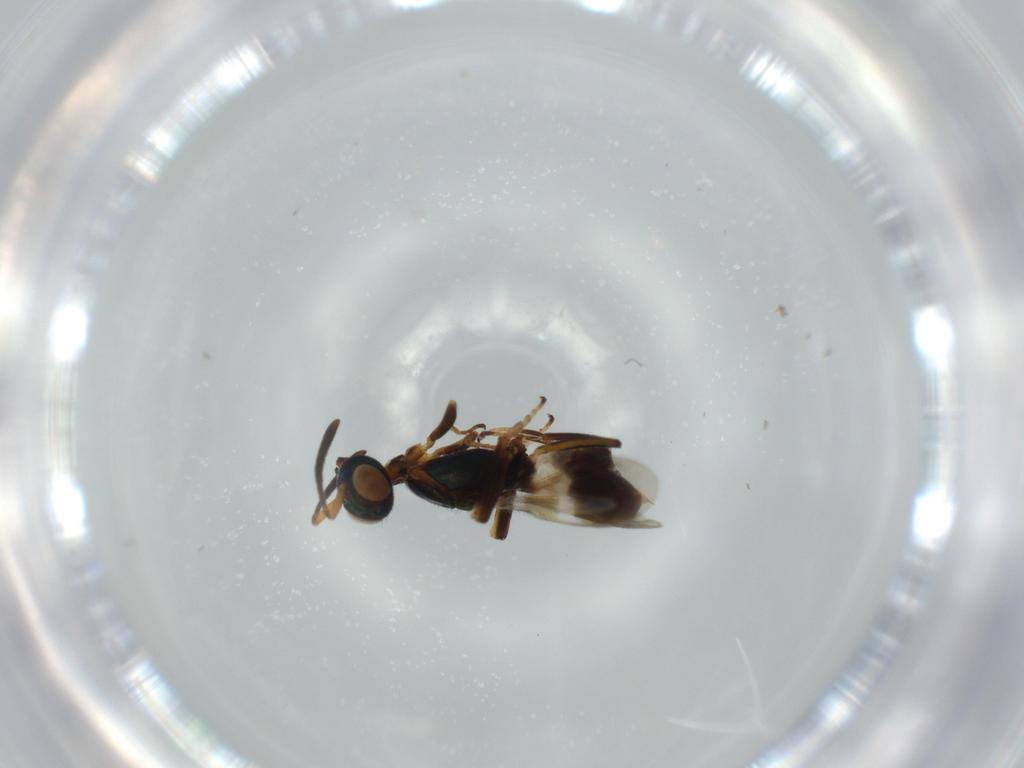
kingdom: Animalia
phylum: Arthropoda
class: Insecta
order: Hymenoptera
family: Eupelmidae
